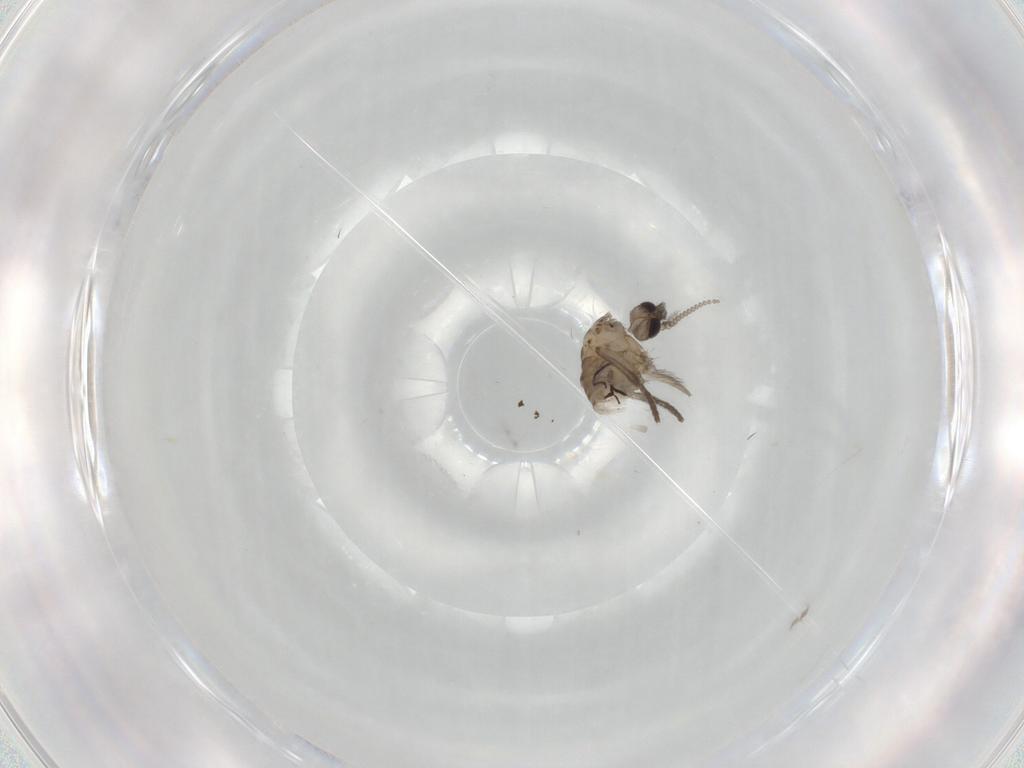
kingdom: Animalia
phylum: Arthropoda
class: Insecta
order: Diptera
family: Psychodidae
